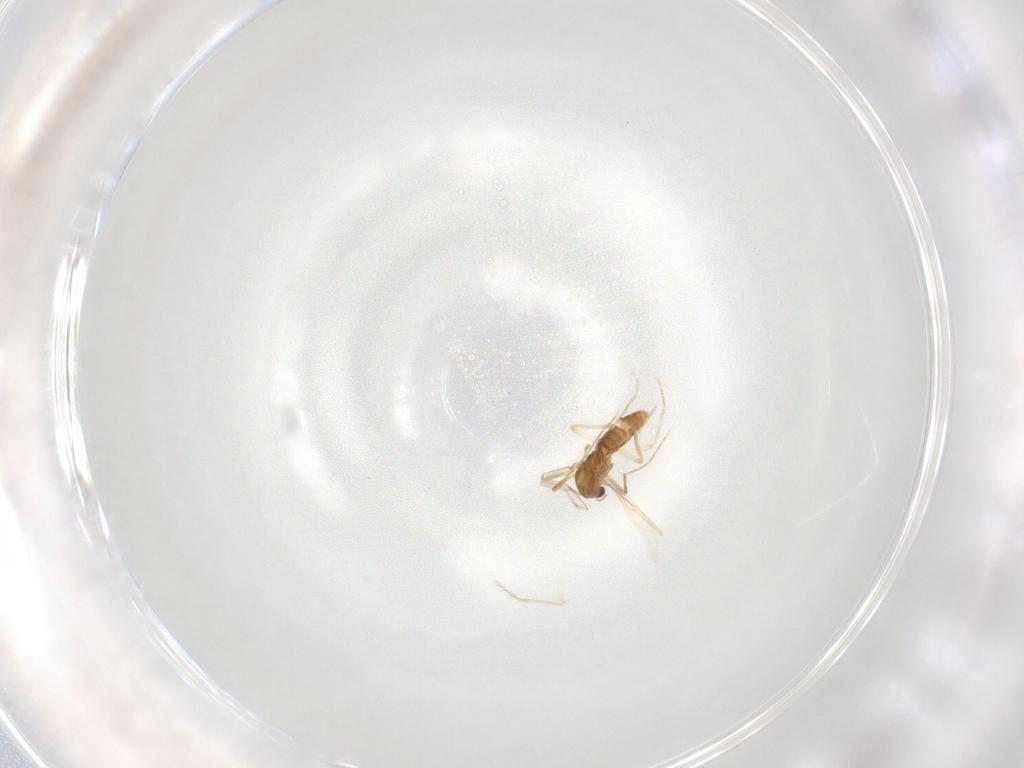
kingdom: Animalia
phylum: Arthropoda
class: Insecta
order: Diptera
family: Chironomidae
